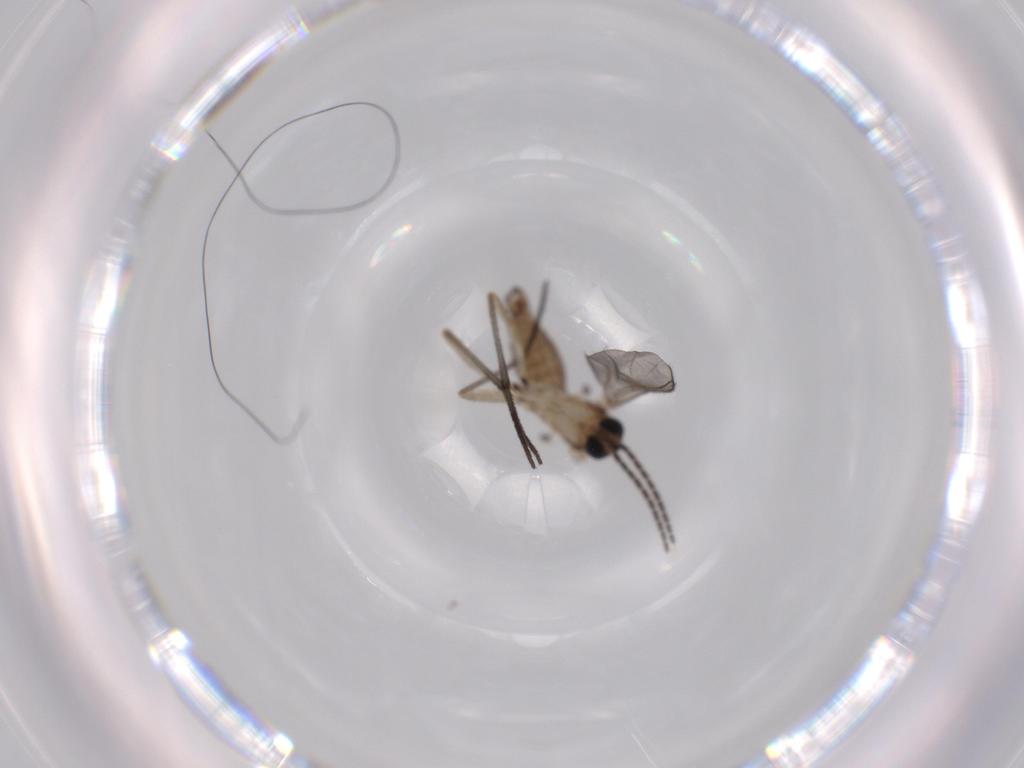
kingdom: Animalia
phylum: Arthropoda
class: Insecta
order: Diptera
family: Sciaridae
